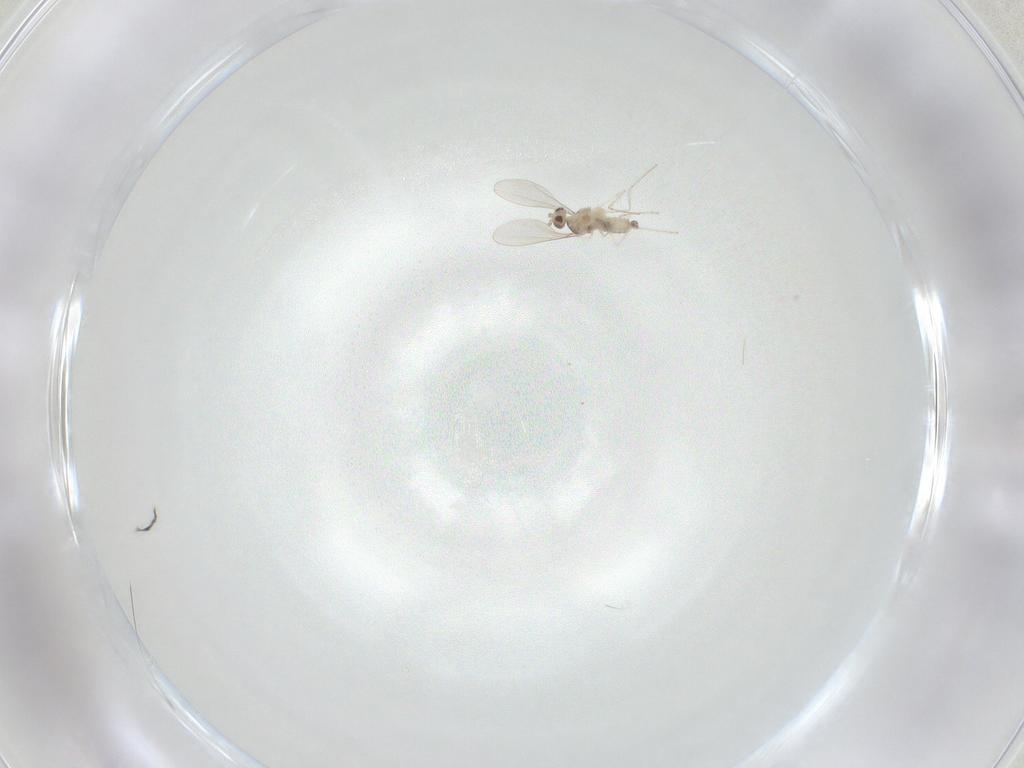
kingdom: Animalia
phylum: Arthropoda
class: Insecta
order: Diptera
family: Cecidomyiidae
